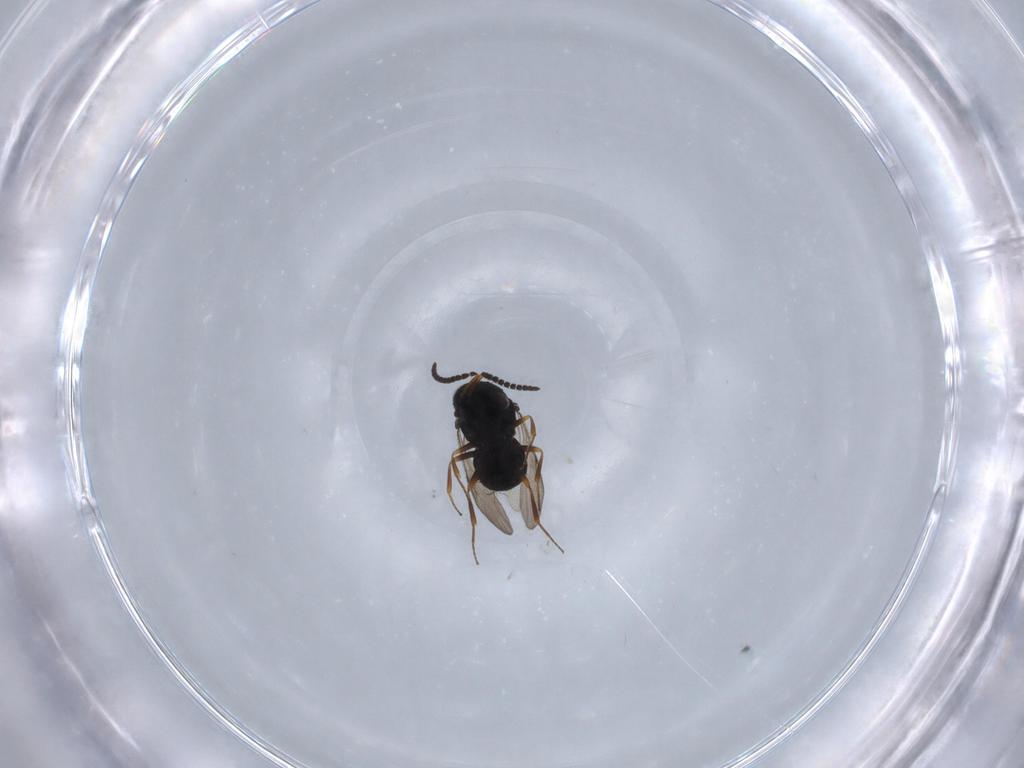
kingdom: Animalia
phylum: Arthropoda
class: Insecta
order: Hymenoptera
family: Scelionidae
